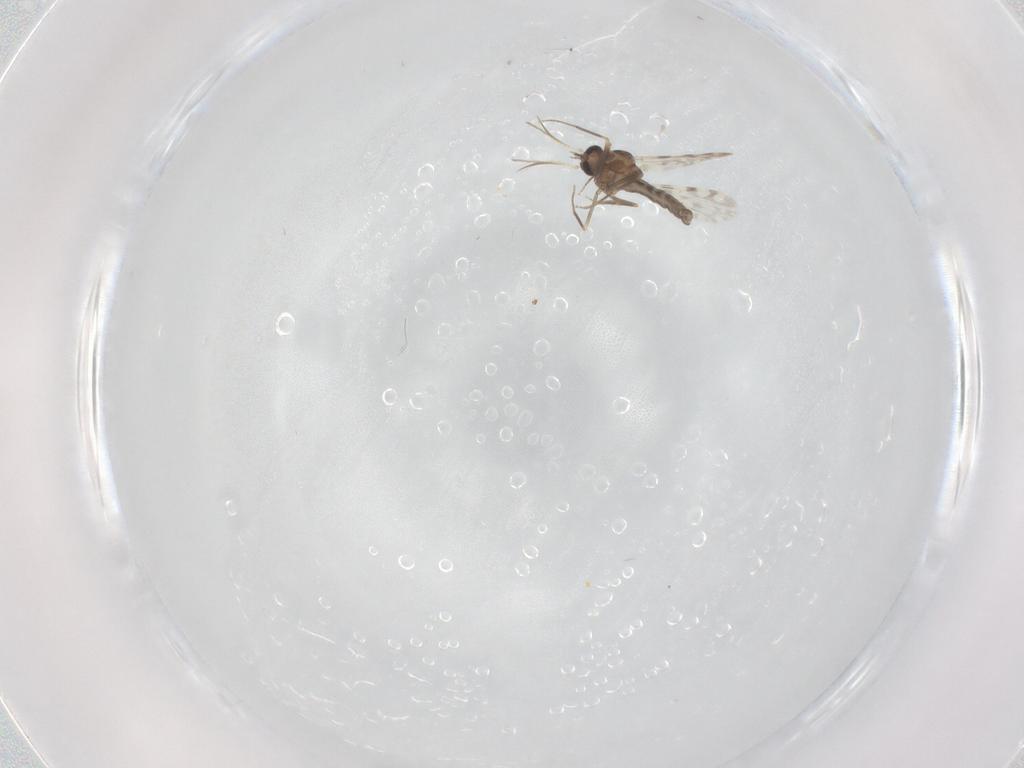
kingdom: Animalia
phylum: Arthropoda
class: Insecta
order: Diptera
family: Ceratopogonidae
